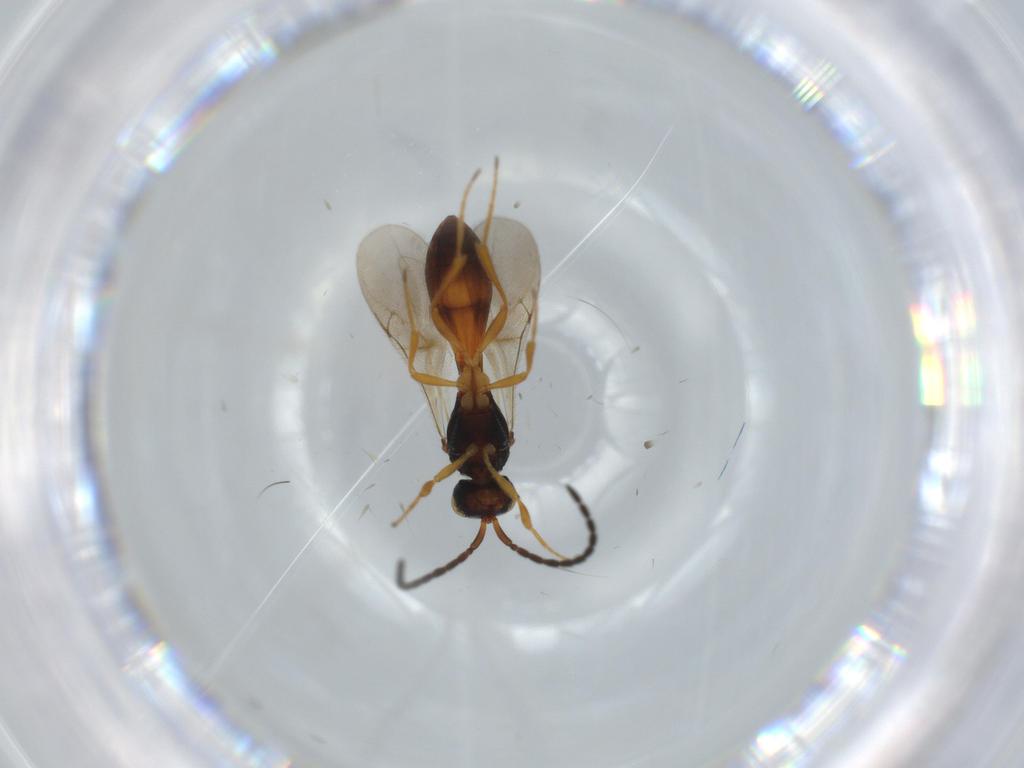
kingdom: Animalia
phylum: Arthropoda
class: Insecta
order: Hymenoptera
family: Scelionidae
